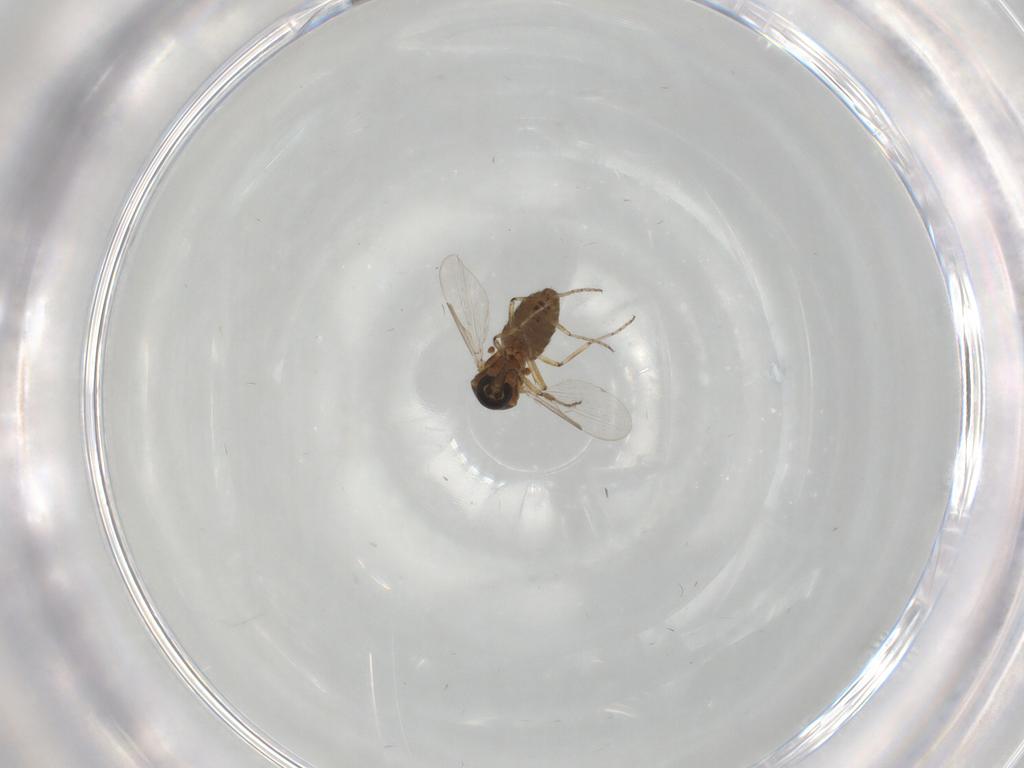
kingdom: Animalia
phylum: Arthropoda
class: Insecta
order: Diptera
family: Ceratopogonidae
